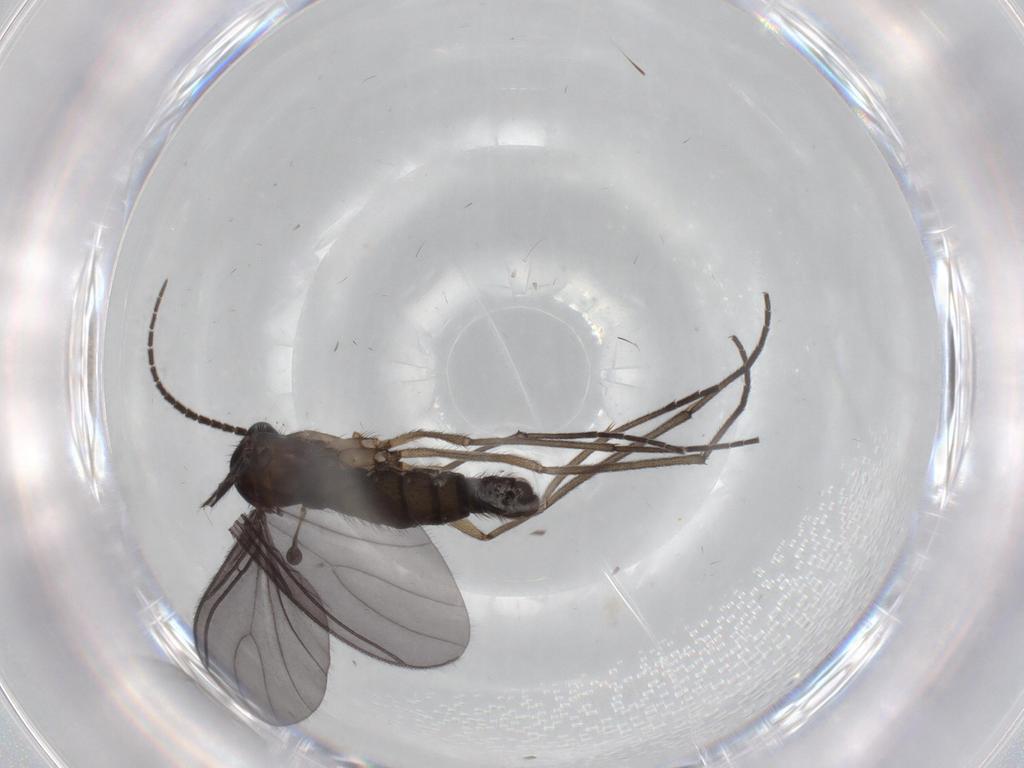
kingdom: Animalia
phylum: Arthropoda
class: Insecta
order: Diptera
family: Sciaridae
